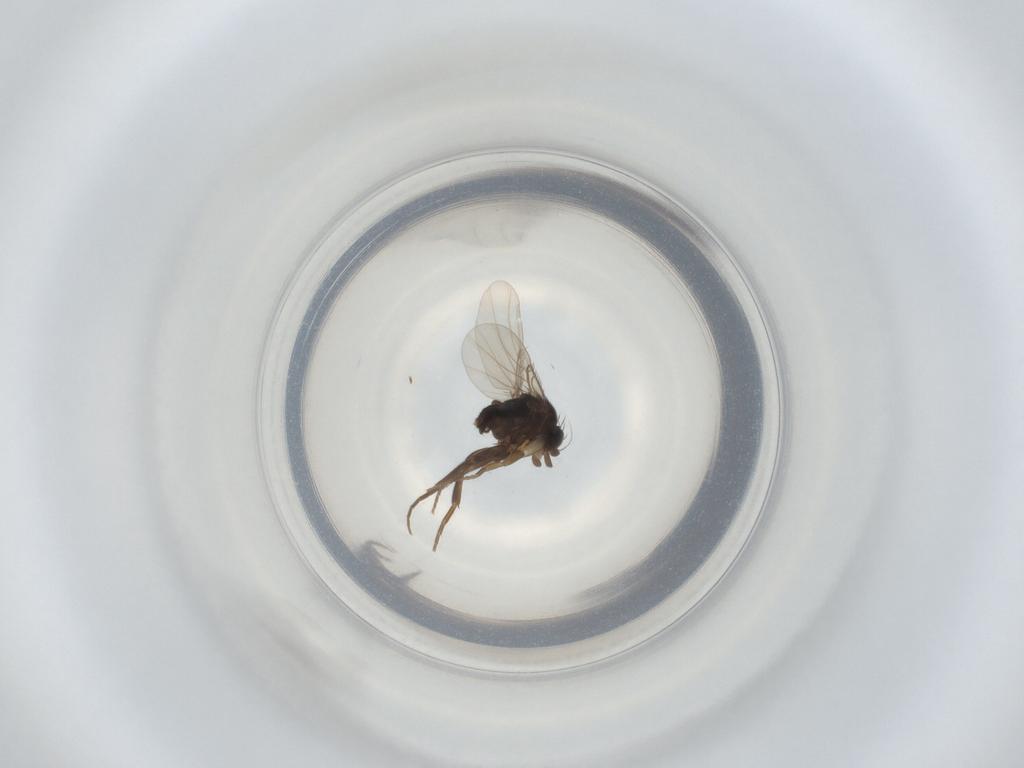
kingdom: Animalia
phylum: Arthropoda
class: Insecta
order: Diptera
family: Phoridae
